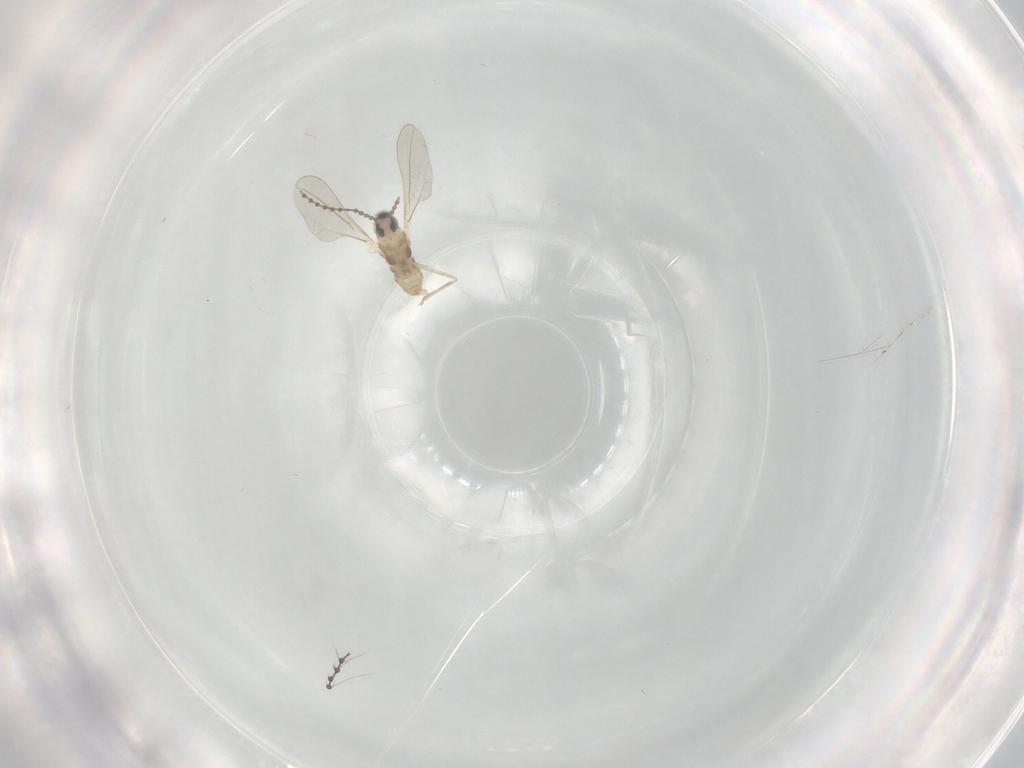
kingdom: Animalia
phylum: Arthropoda
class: Insecta
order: Diptera
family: Cecidomyiidae
